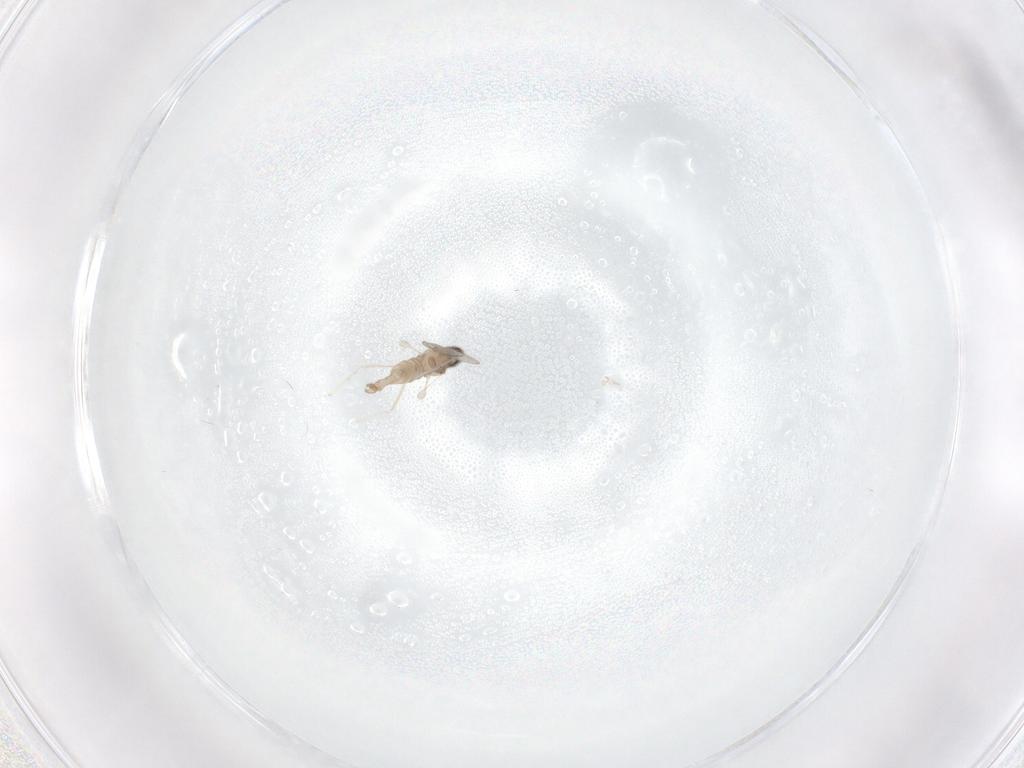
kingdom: Animalia
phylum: Arthropoda
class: Insecta
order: Diptera
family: Cecidomyiidae
